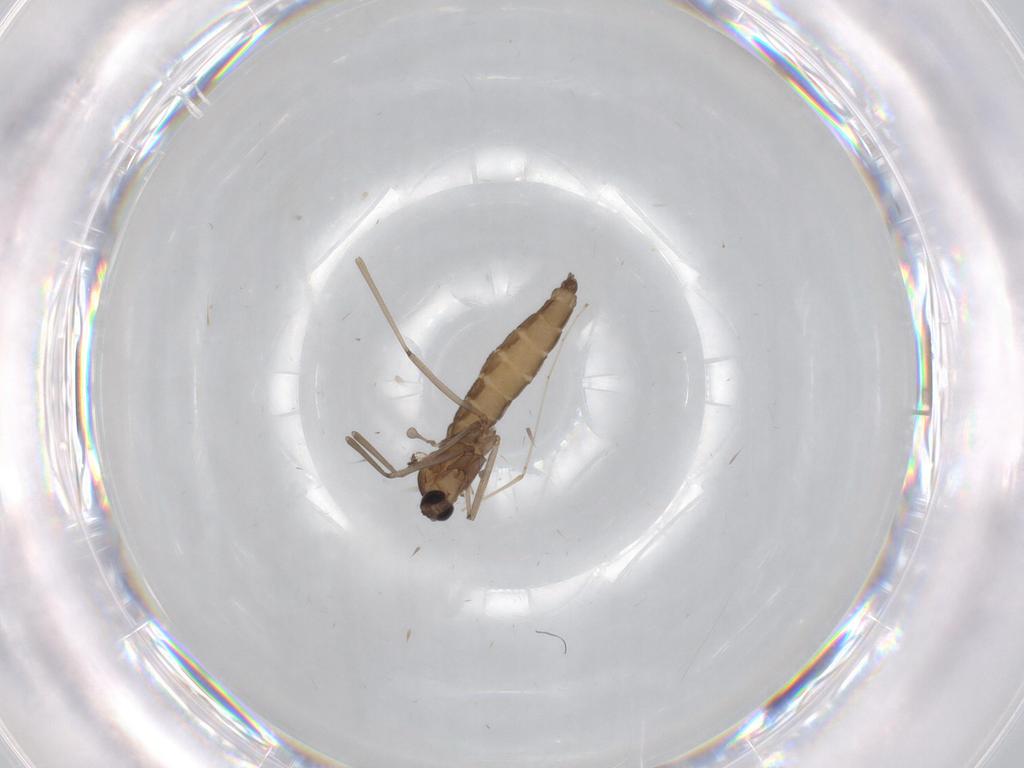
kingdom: Animalia
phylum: Arthropoda
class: Insecta
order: Diptera
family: Cecidomyiidae
